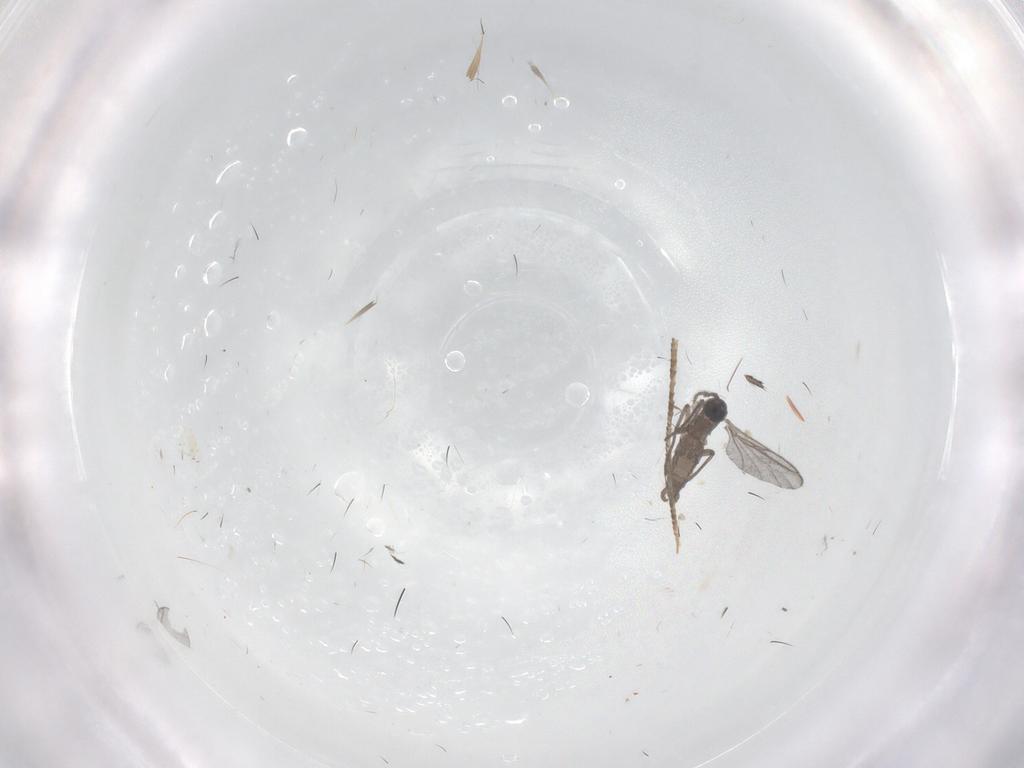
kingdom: Animalia
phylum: Arthropoda
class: Insecta
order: Diptera
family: Sciaridae
